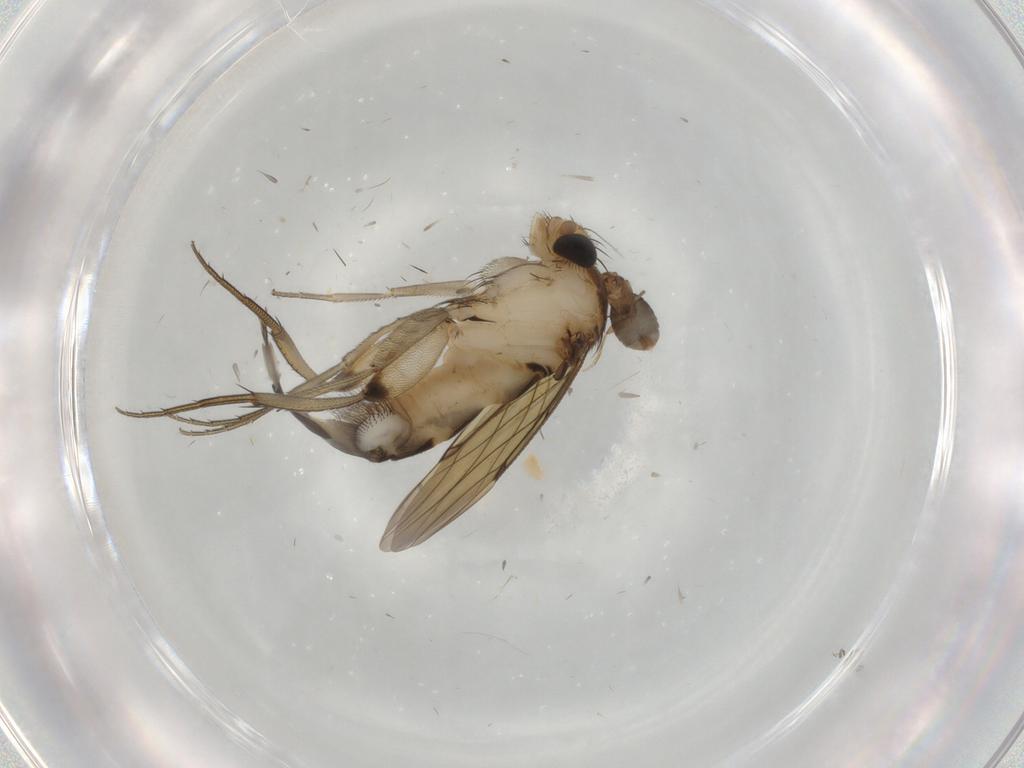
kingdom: Animalia
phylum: Arthropoda
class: Insecta
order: Diptera
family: Phoridae
